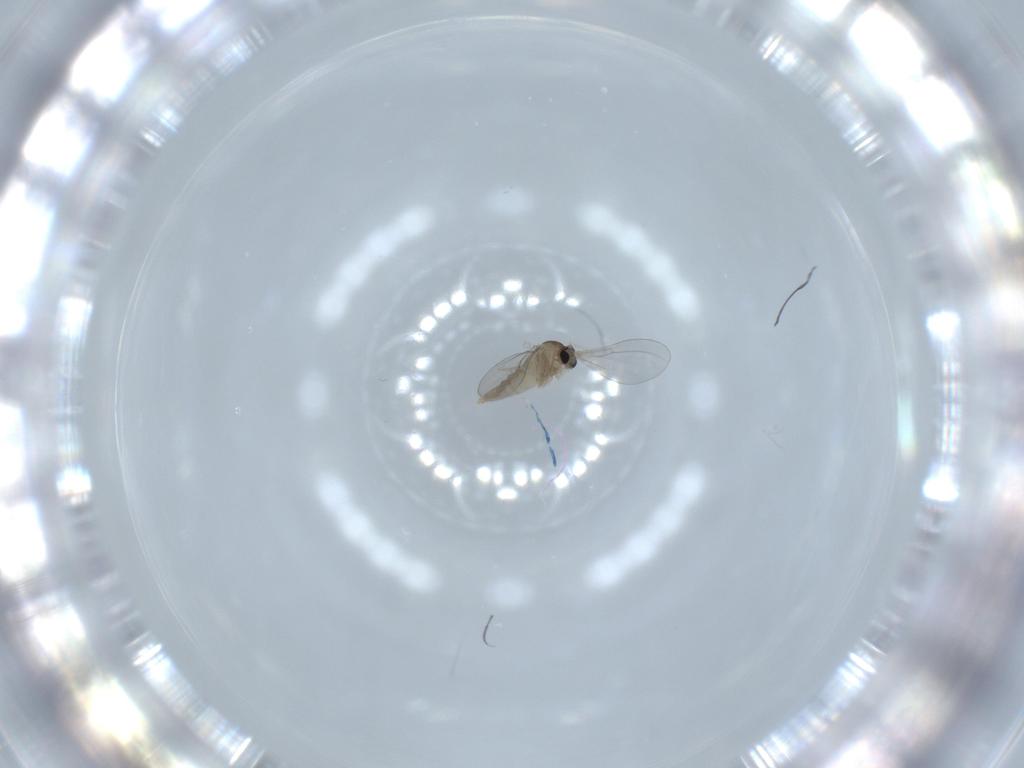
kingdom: Animalia
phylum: Arthropoda
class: Insecta
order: Diptera
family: Cecidomyiidae
